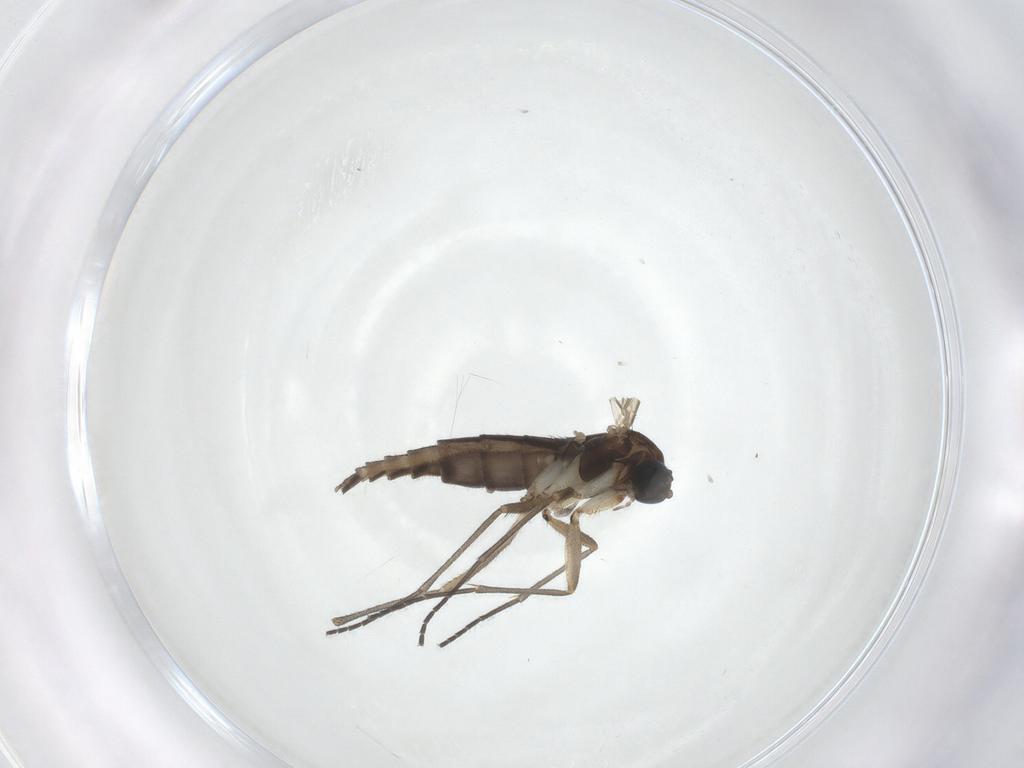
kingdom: Animalia
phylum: Arthropoda
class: Insecta
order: Diptera
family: Sciaridae
